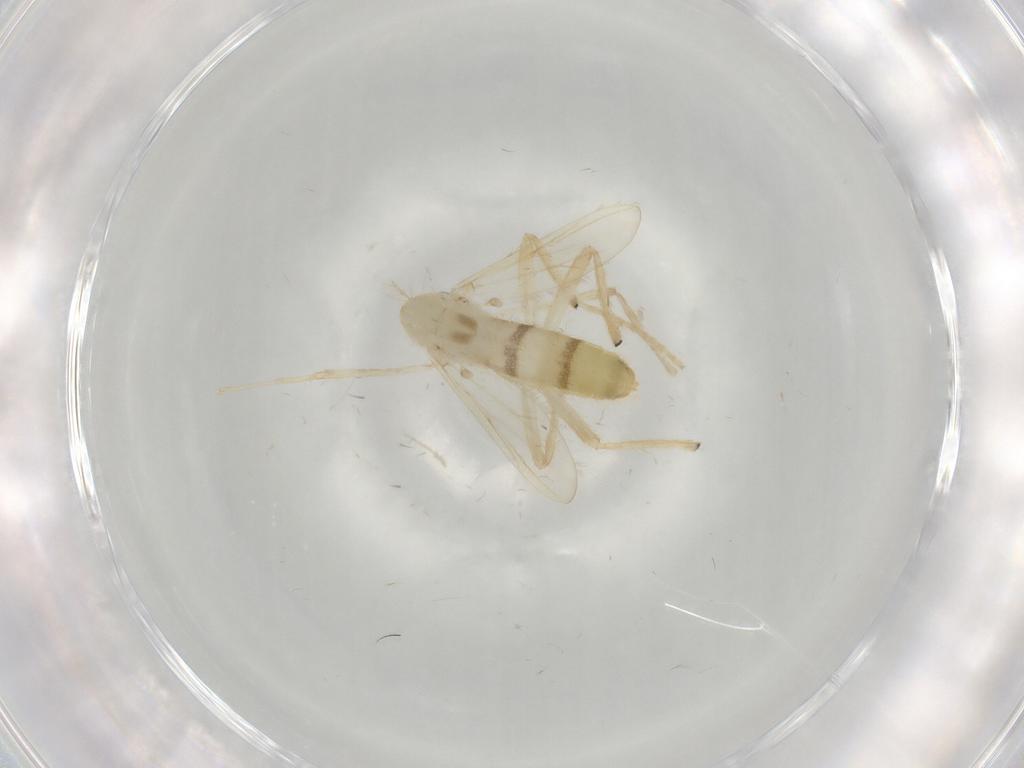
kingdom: Animalia
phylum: Arthropoda
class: Insecta
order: Diptera
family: Chironomidae
